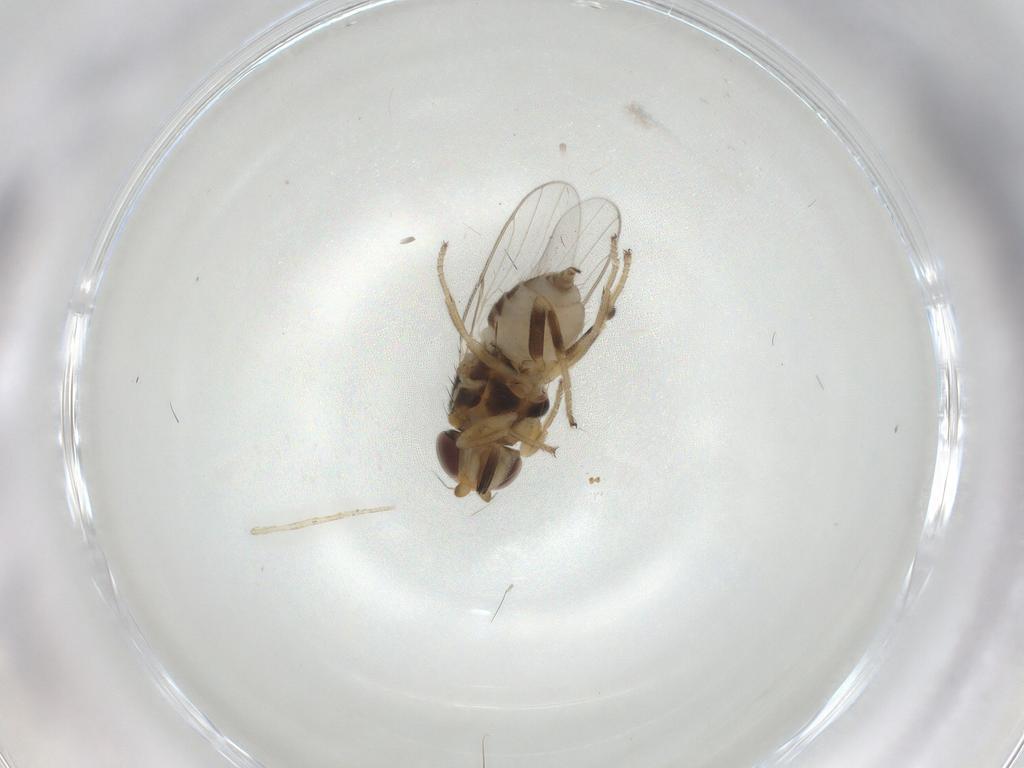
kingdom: Animalia
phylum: Arthropoda
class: Insecta
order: Diptera
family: Chloropidae
